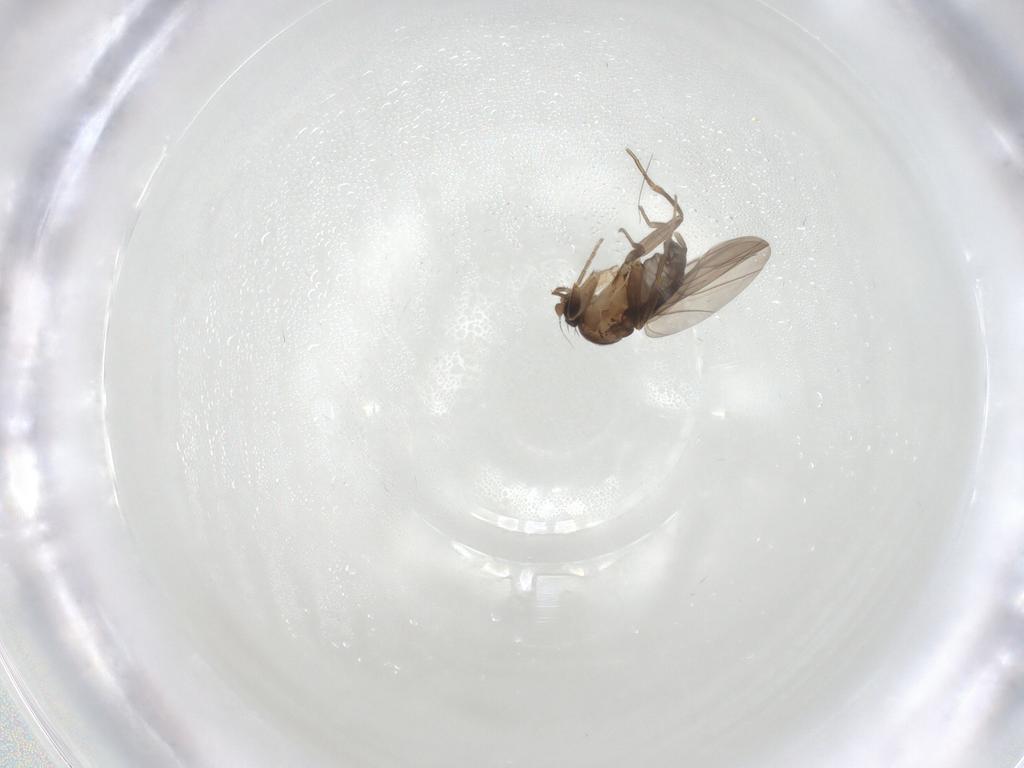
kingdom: Animalia
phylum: Arthropoda
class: Insecta
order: Diptera
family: Phoridae
